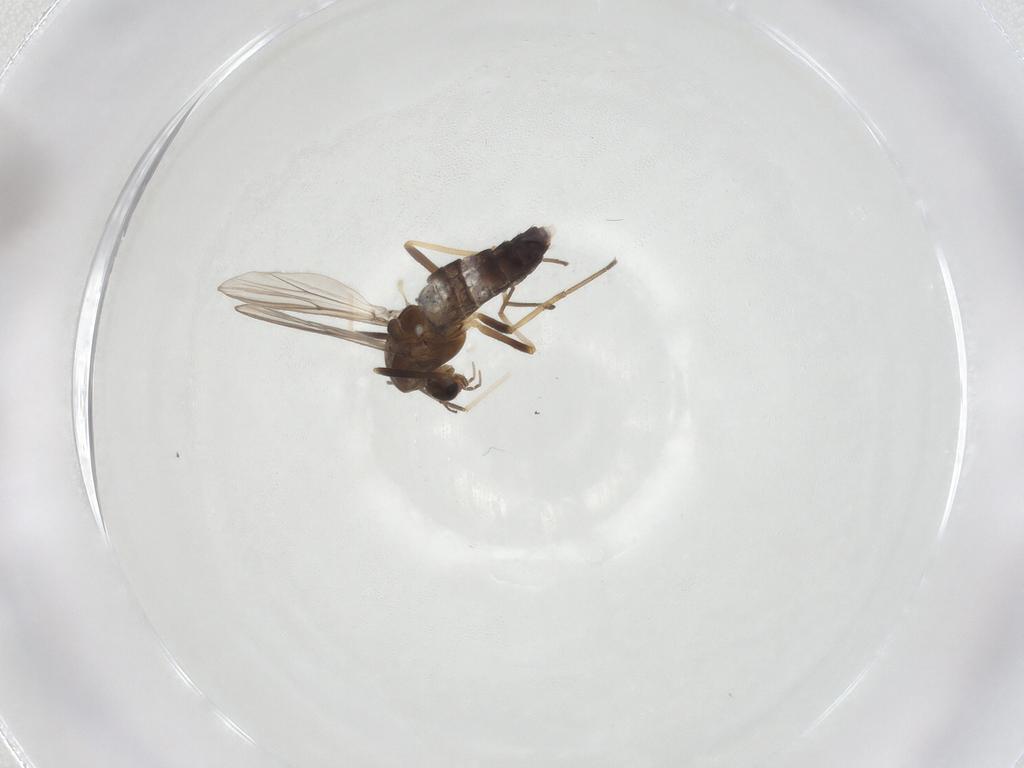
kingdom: Animalia
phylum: Arthropoda
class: Insecta
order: Diptera
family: Chironomidae
